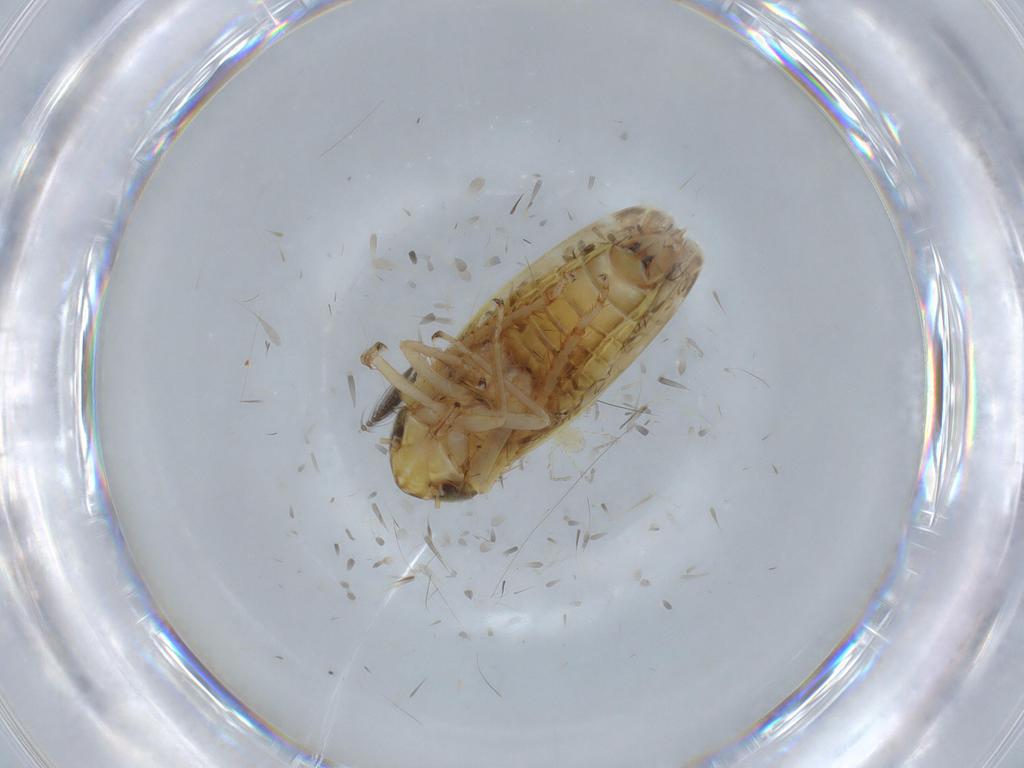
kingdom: Animalia
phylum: Arthropoda
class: Insecta
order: Hemiptera
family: Cicadellidae
